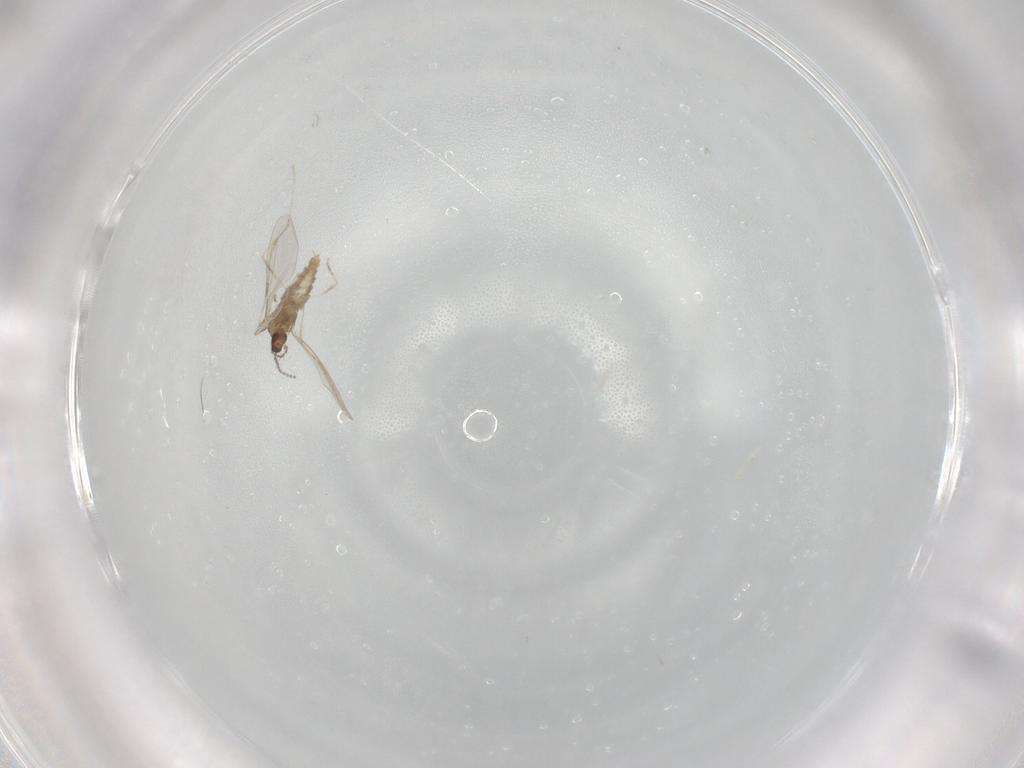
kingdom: Animalia
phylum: Arthropoda
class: Insecta
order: Diptera
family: Cecidomyiidae
